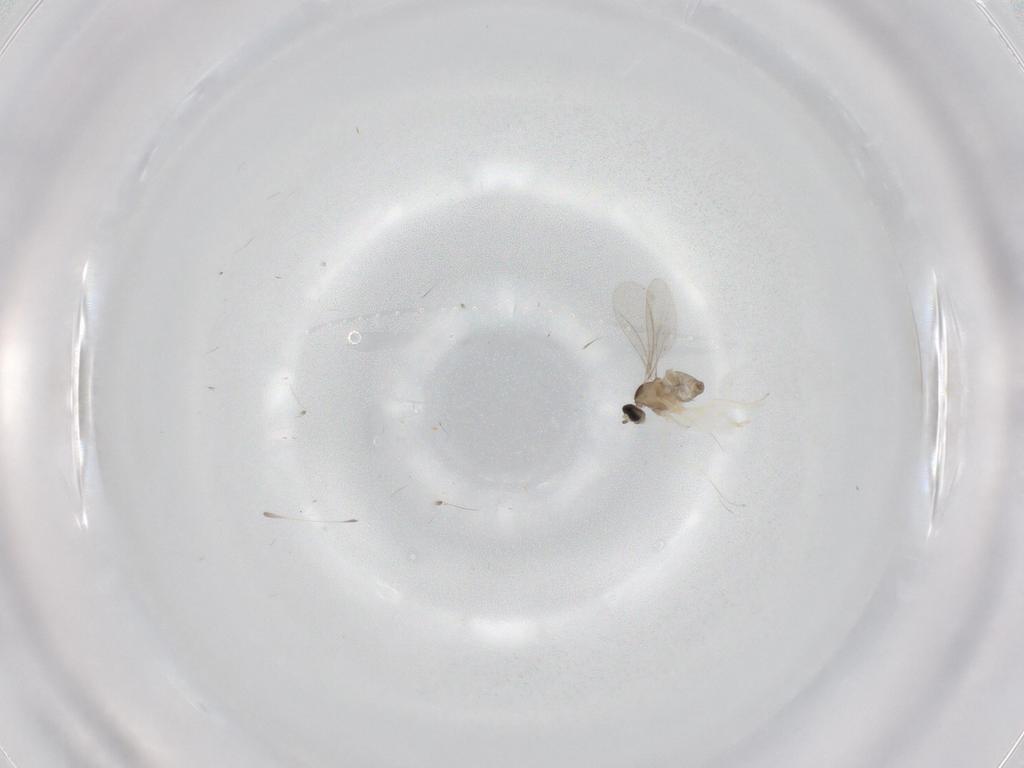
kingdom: Animalia
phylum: Arthropoda
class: Insecta
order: Diptera
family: Cecidomyiidae
